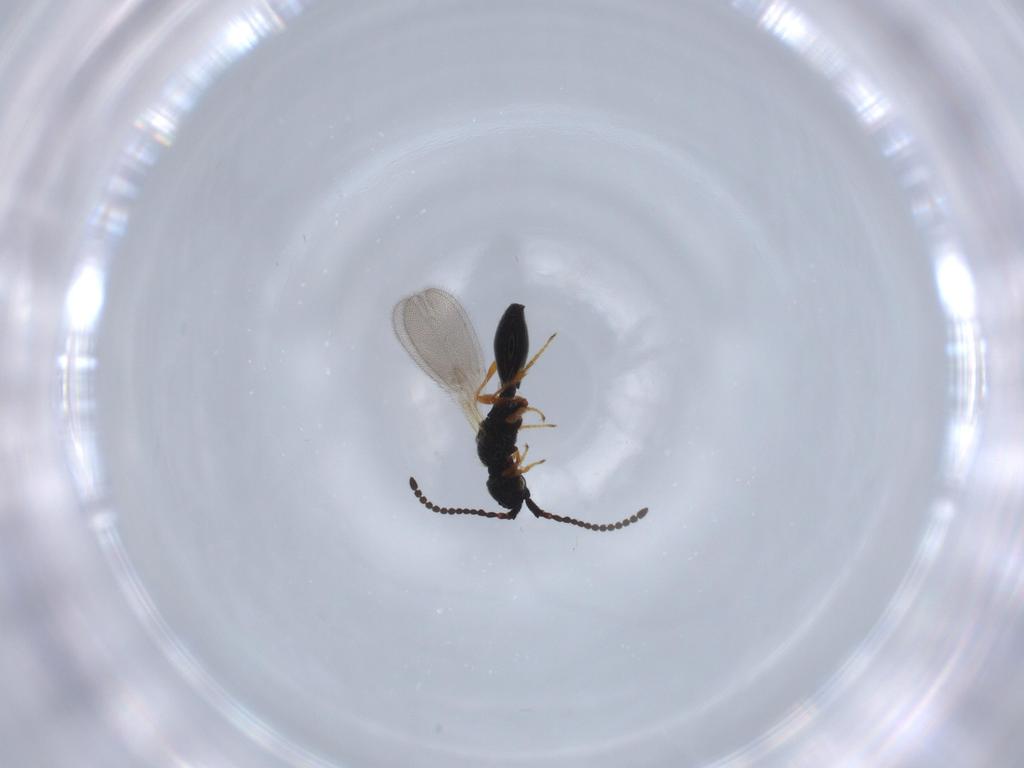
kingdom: Animalia
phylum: Arthropoda
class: Insecta
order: Hymenoptera
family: Diapriidae
